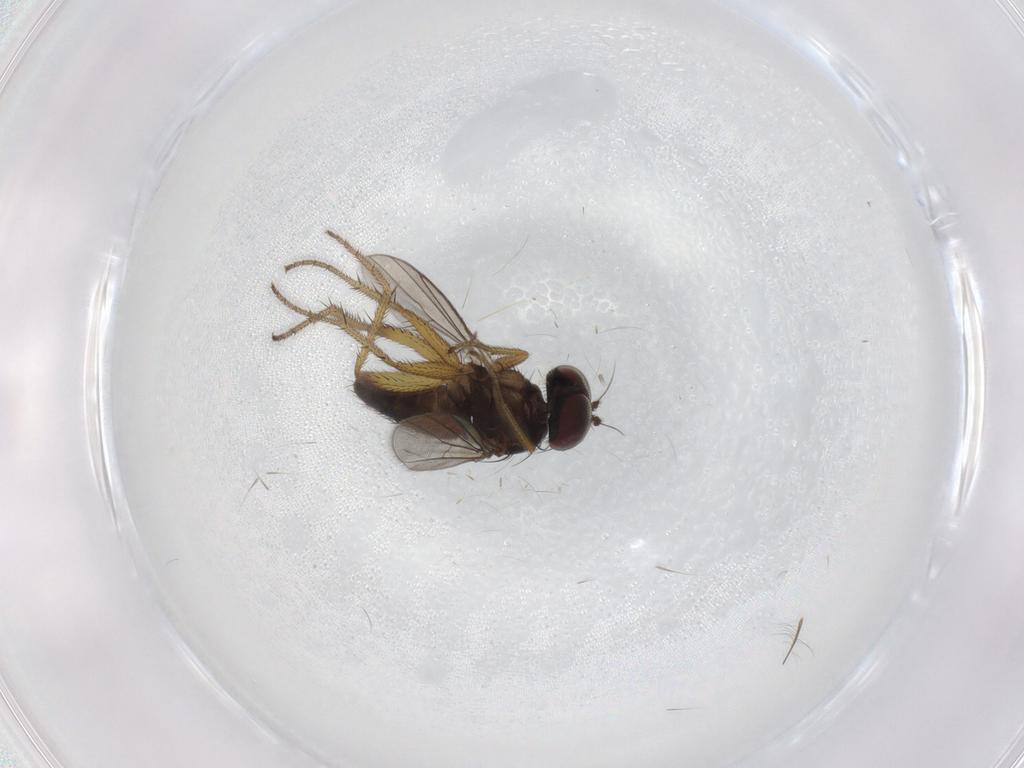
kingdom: Animalia
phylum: Arthropoda
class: Insecta
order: Diptera
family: Dolichopodidae
